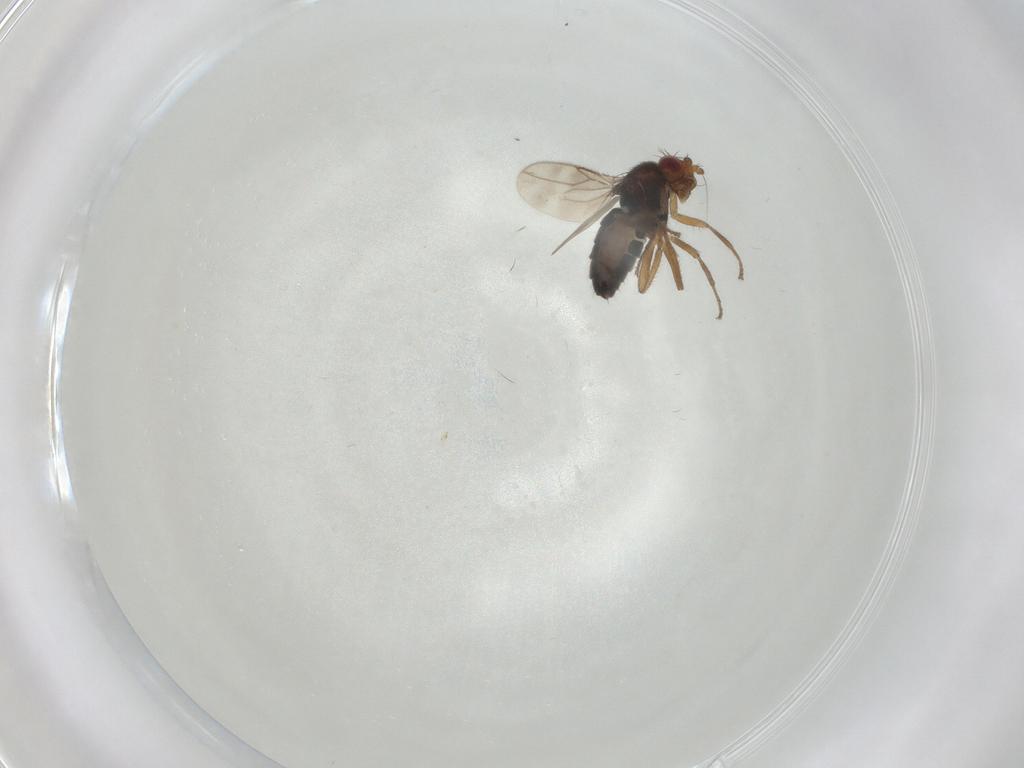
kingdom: Animalia
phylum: Arthropoda
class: Insecta
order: Diptera
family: Sphaeroceridae
